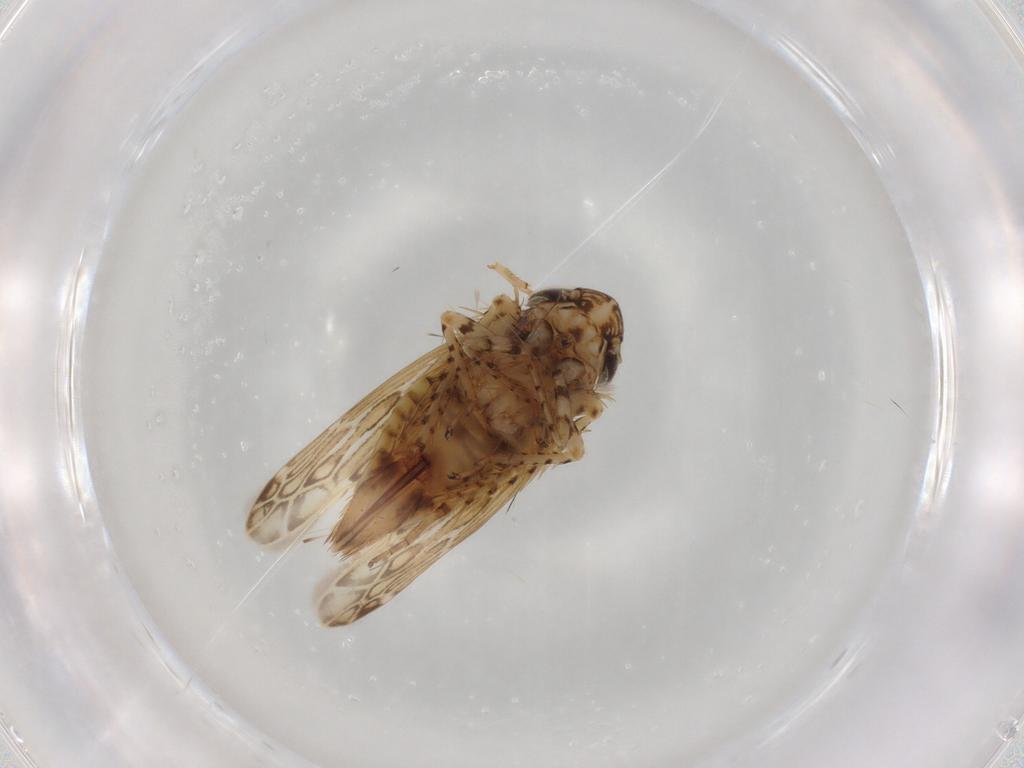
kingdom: Animalia
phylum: Arthropoda
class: Insecta
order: Hemiptera
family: Cicadellidae
